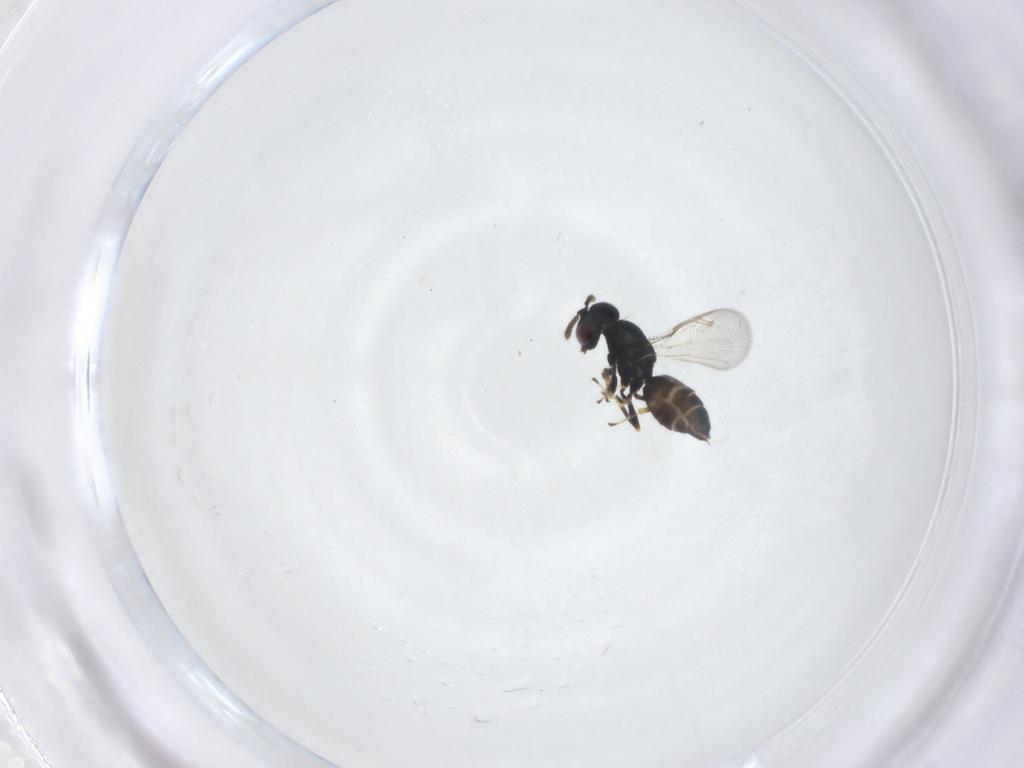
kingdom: Animalia
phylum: Arthropoda
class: Insecta
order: Hymenoptera
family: Pteromalidae
